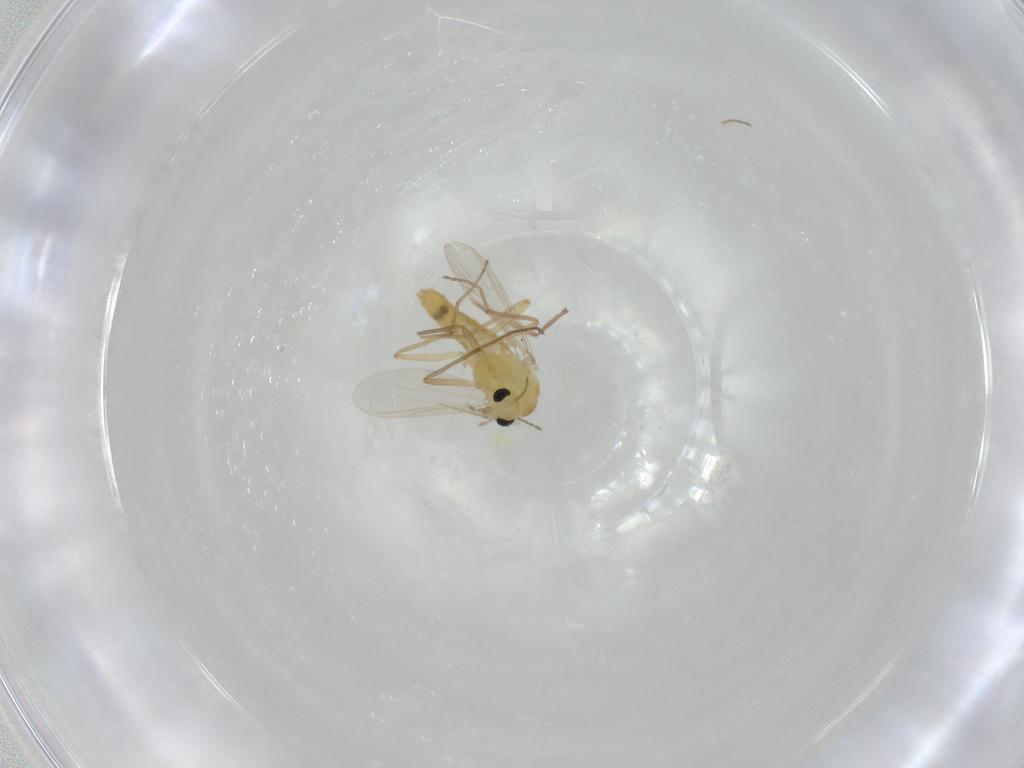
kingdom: Animalia
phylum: Arthropoda
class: Insecta
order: Diptera
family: Chironomidae
